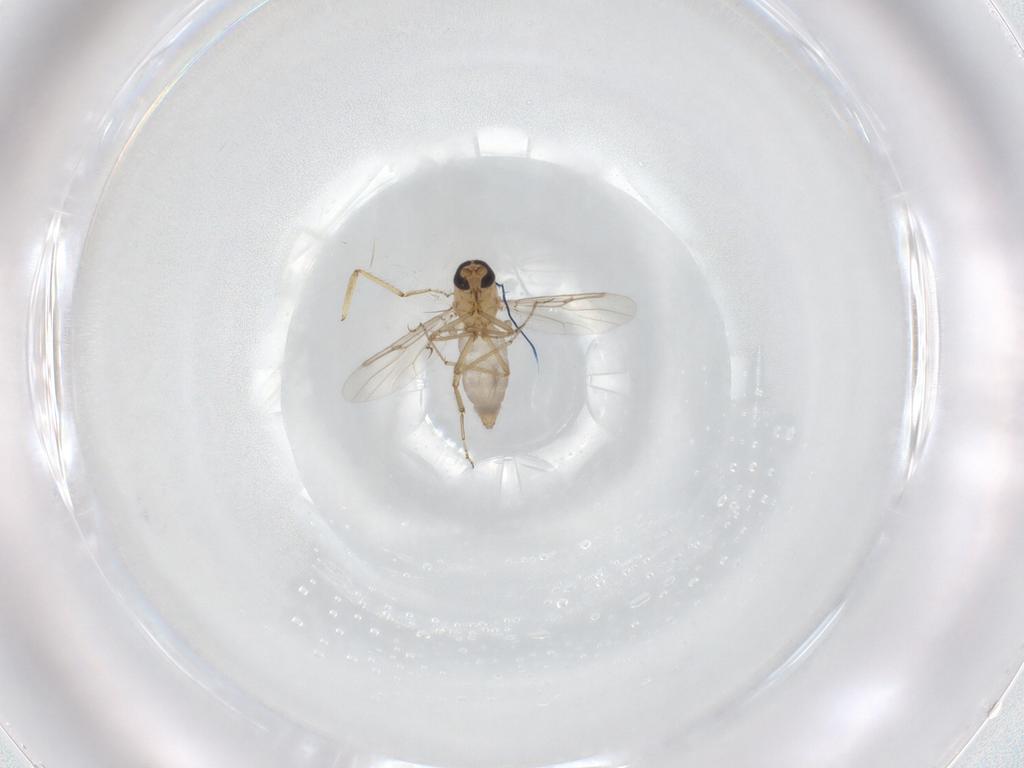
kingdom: Animalia
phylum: Arthropoda
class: Insecta
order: Diptera
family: Ceratopogonidae
